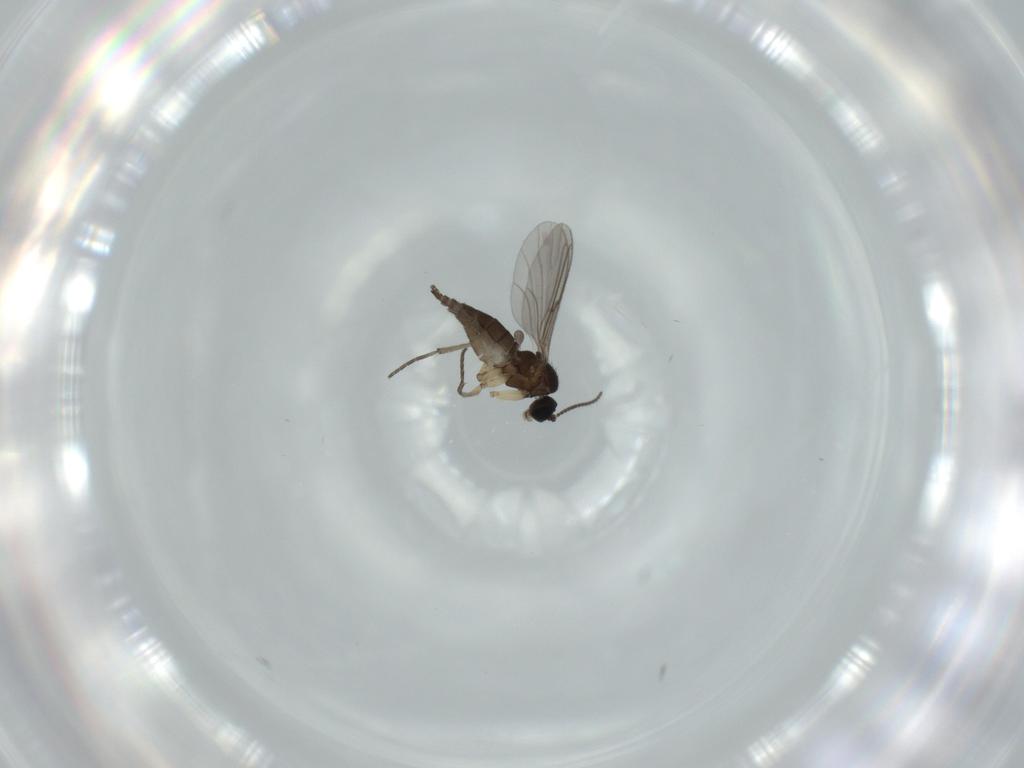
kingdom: Animalia
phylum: Arthropoda
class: Insecta
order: Diptera
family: Sciaridae
